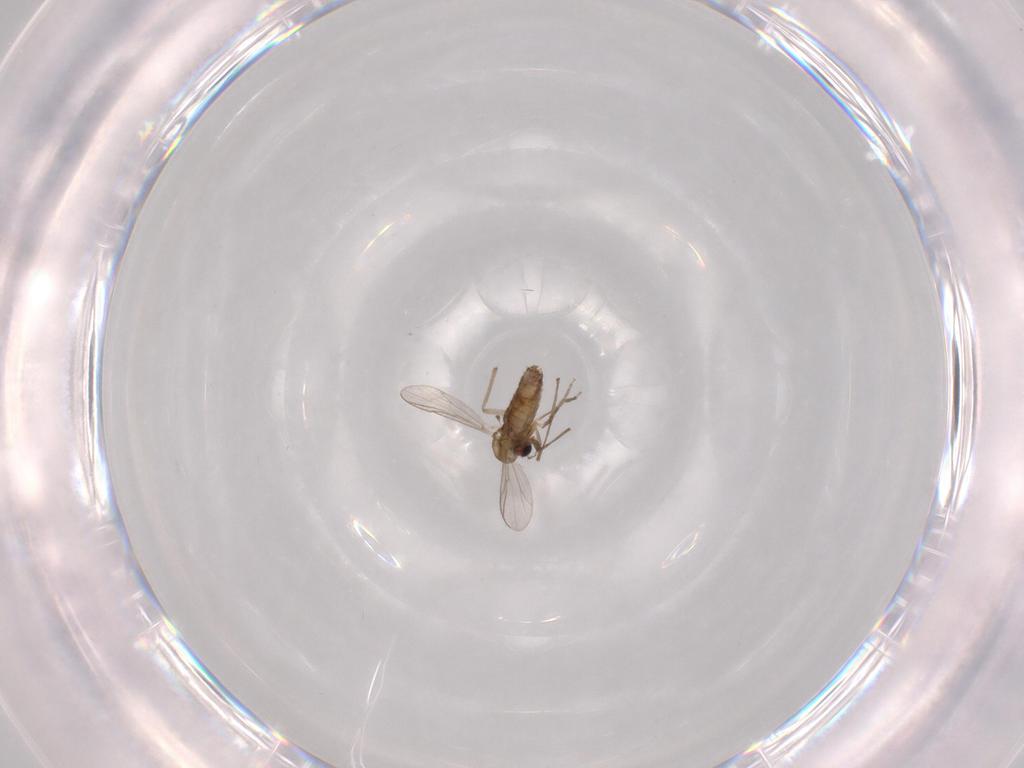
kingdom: Animalia
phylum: Arthropoda
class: Insecta
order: Diptera
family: Chironomidae
